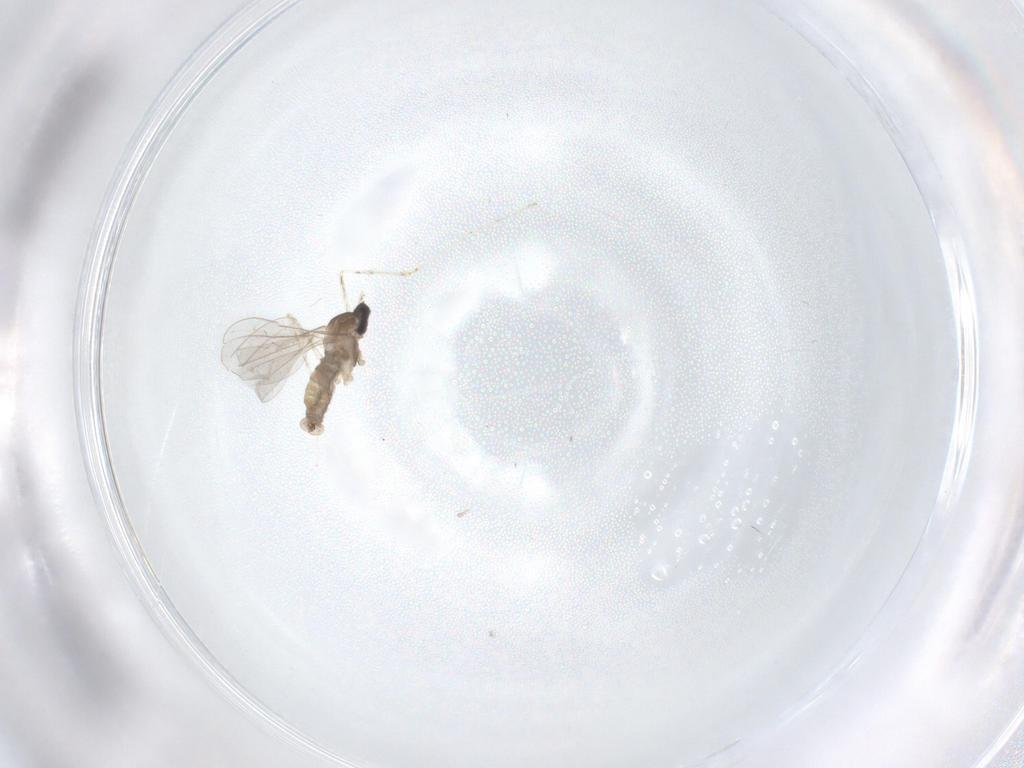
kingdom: Animalia
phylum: Arthropoda
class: Insecta
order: Diptera
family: Cecidomyiidae
